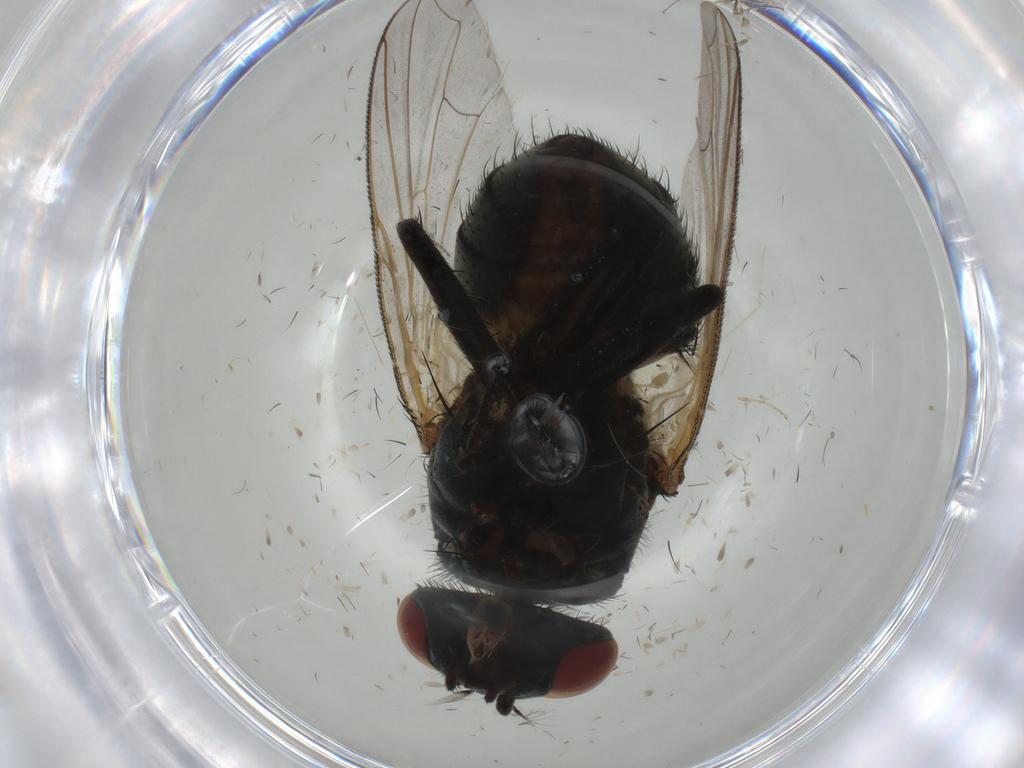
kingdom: Animalia
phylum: Arthropoda
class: Insecta
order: Diptera
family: Muscidae
